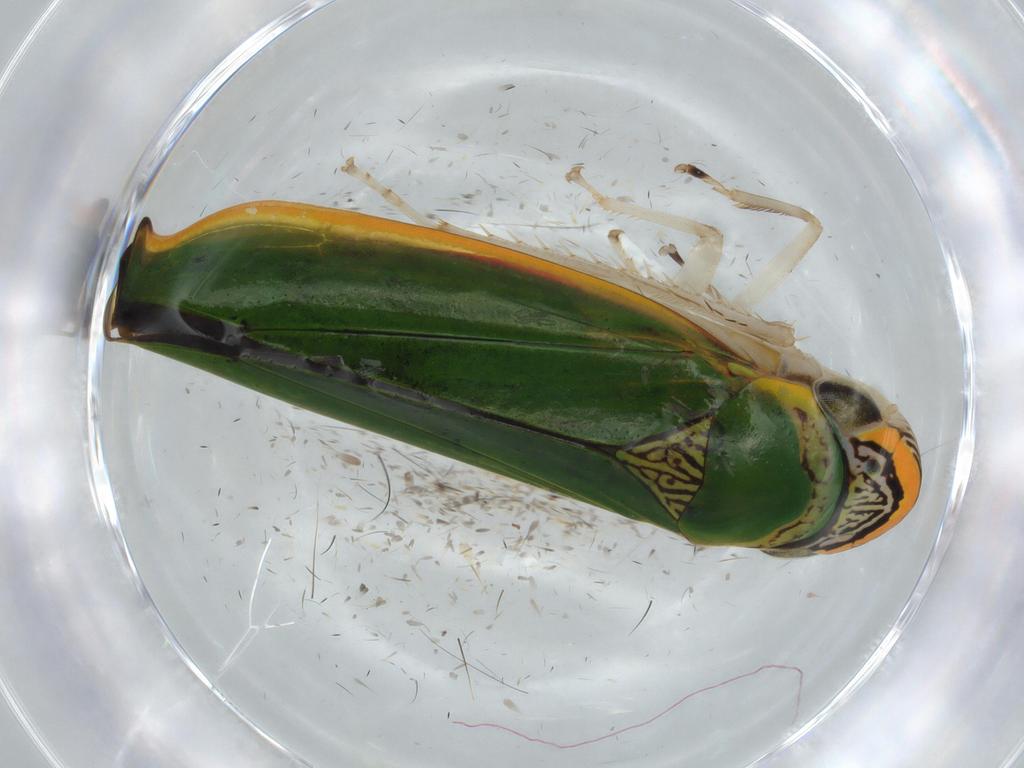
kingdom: Animalia
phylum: Arthropoda
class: Insecta
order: Hemiptera
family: Cicadellidae
